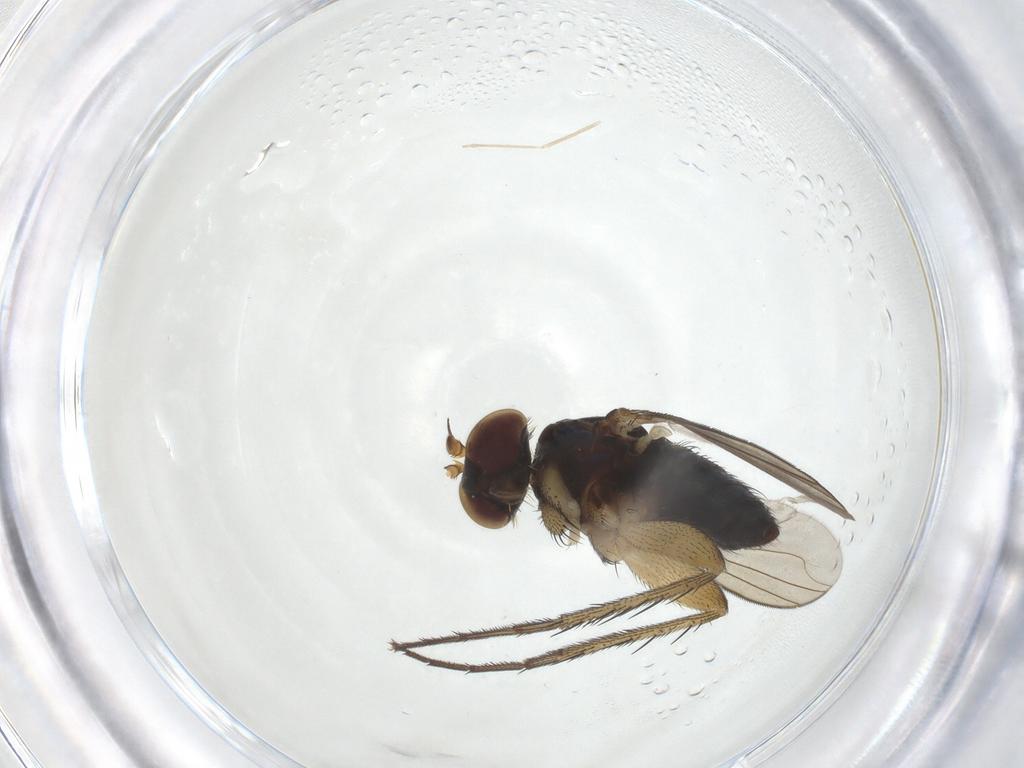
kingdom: Animalia
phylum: Arthropoda
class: Insecta
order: Diptera
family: Dolichopodidae
